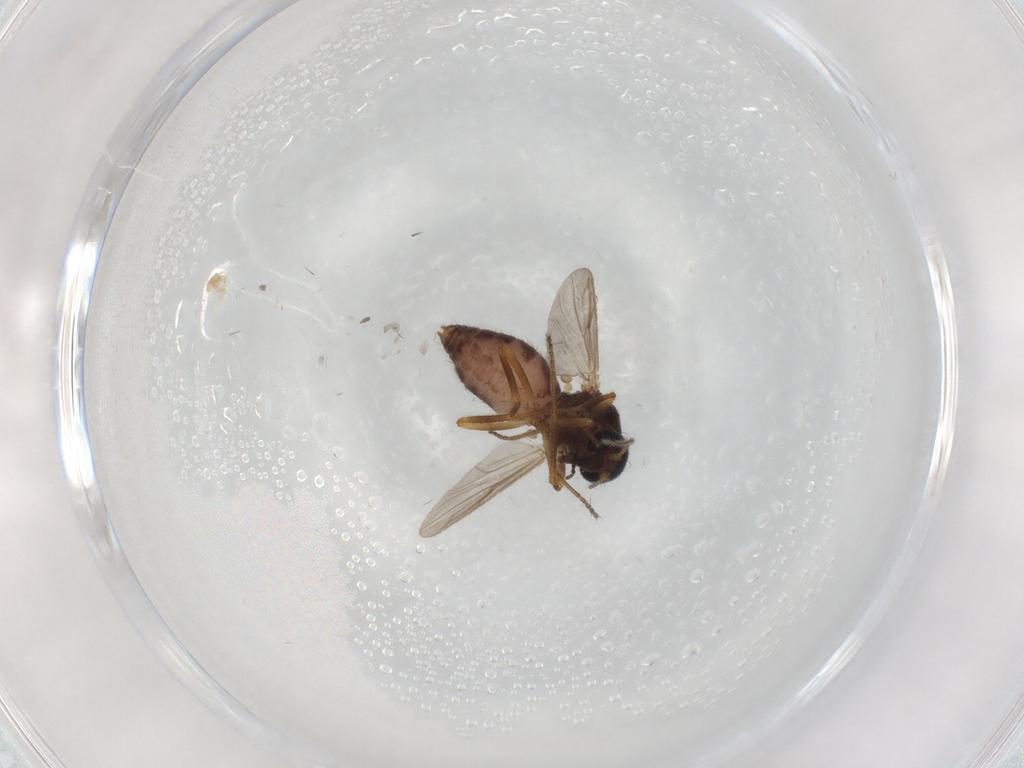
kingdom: Animalia
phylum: Arthropoda
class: Insecta
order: Diptera
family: Ceratopogonidae
